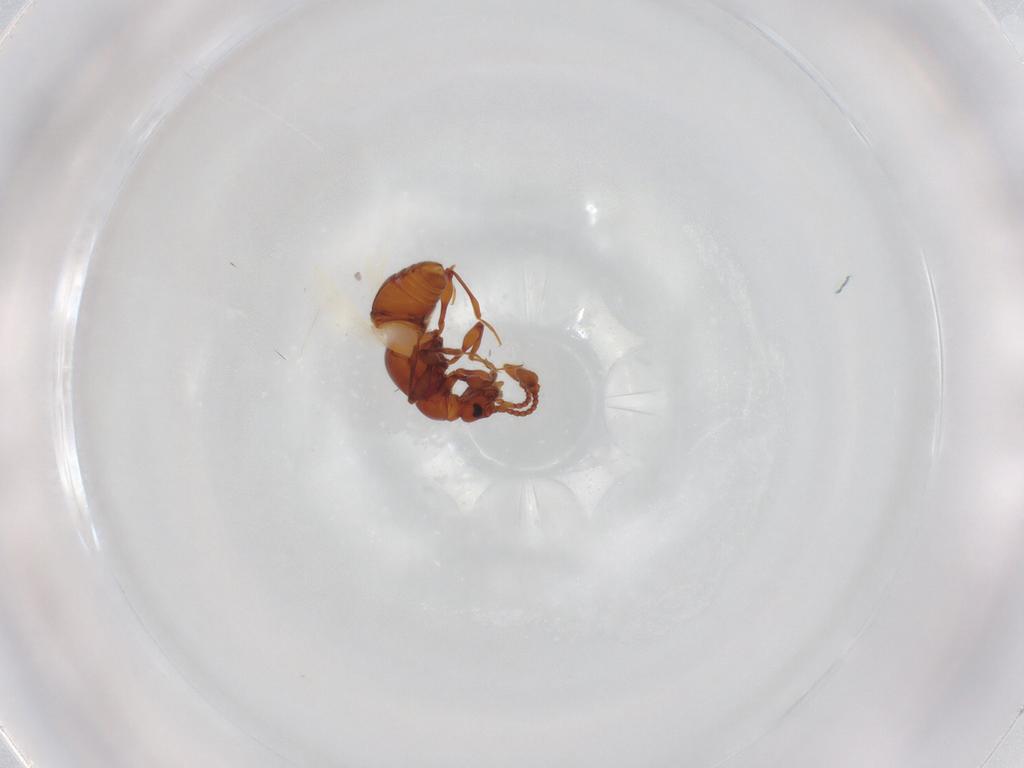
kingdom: Animalia
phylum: Arthropoda
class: Insecta
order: Coleoptera
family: Staphylinidae
